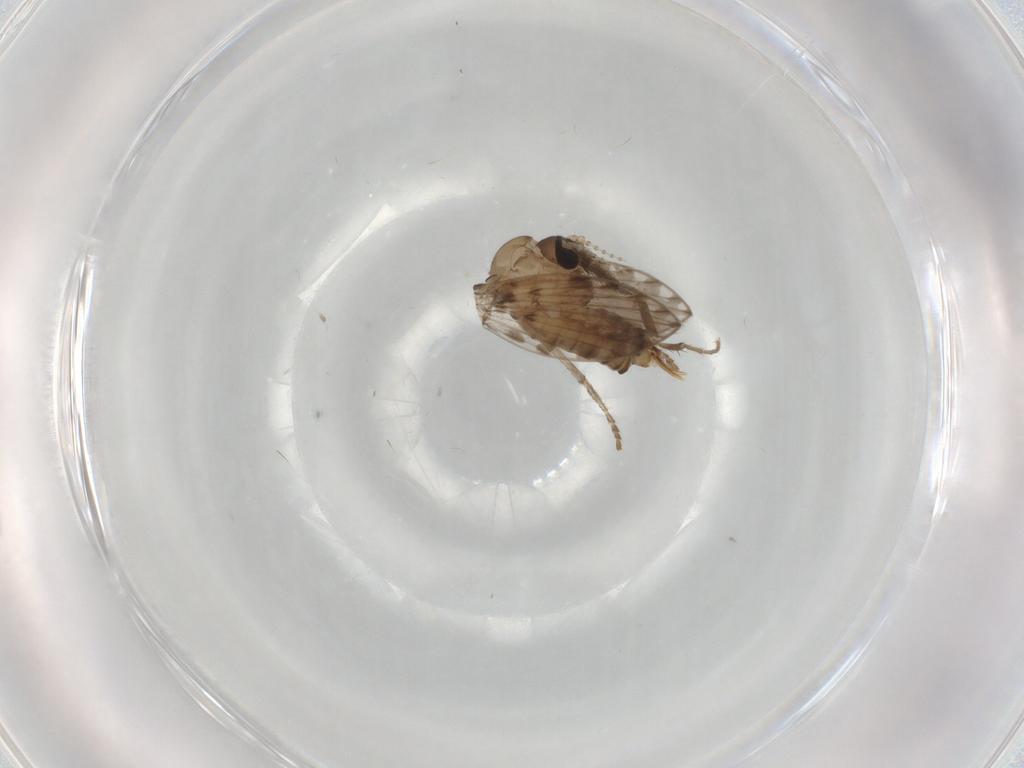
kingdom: Animalia
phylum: Arthropoda
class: Insecta
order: Diptera
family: Psychodidae
